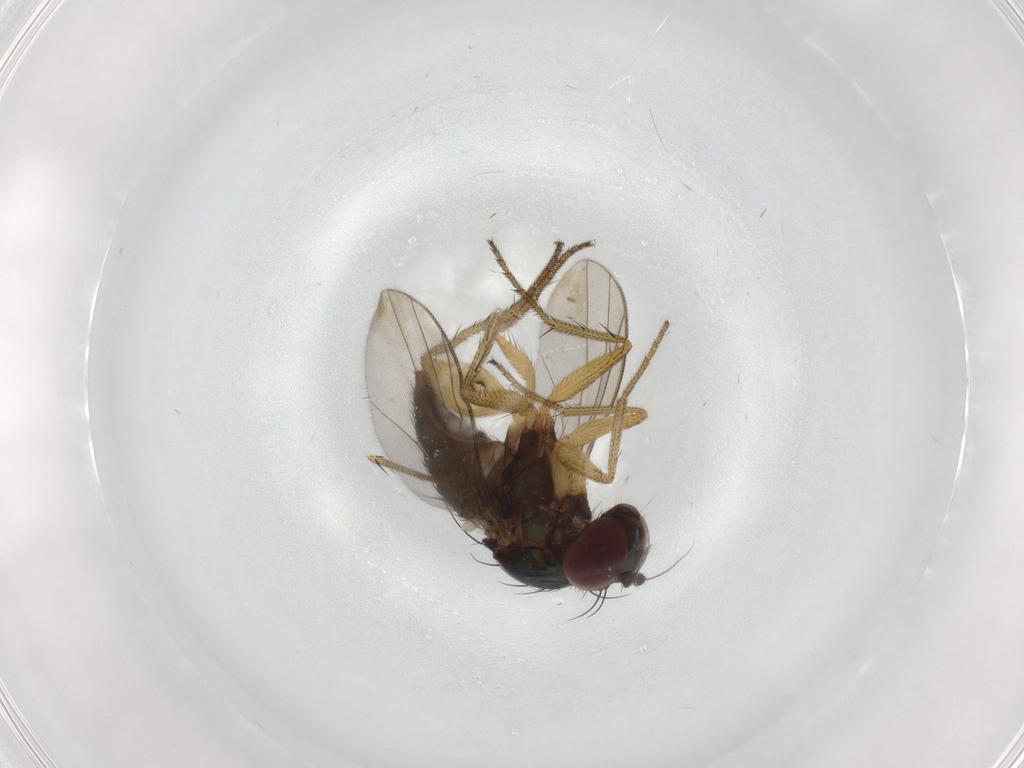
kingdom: Animalia
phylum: Arthropoda
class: Insecta
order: Diptera
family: Dolichopodidae
